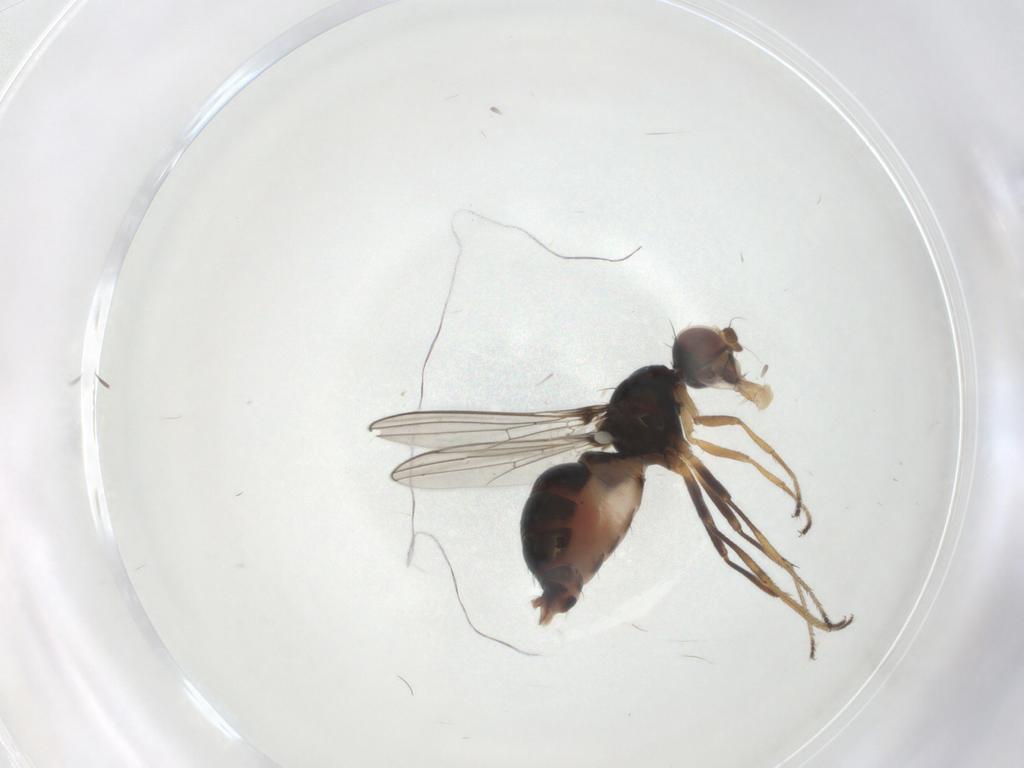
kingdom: Animalia
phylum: Arthropoda
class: Insecta
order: Diptera
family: Sepsidae
